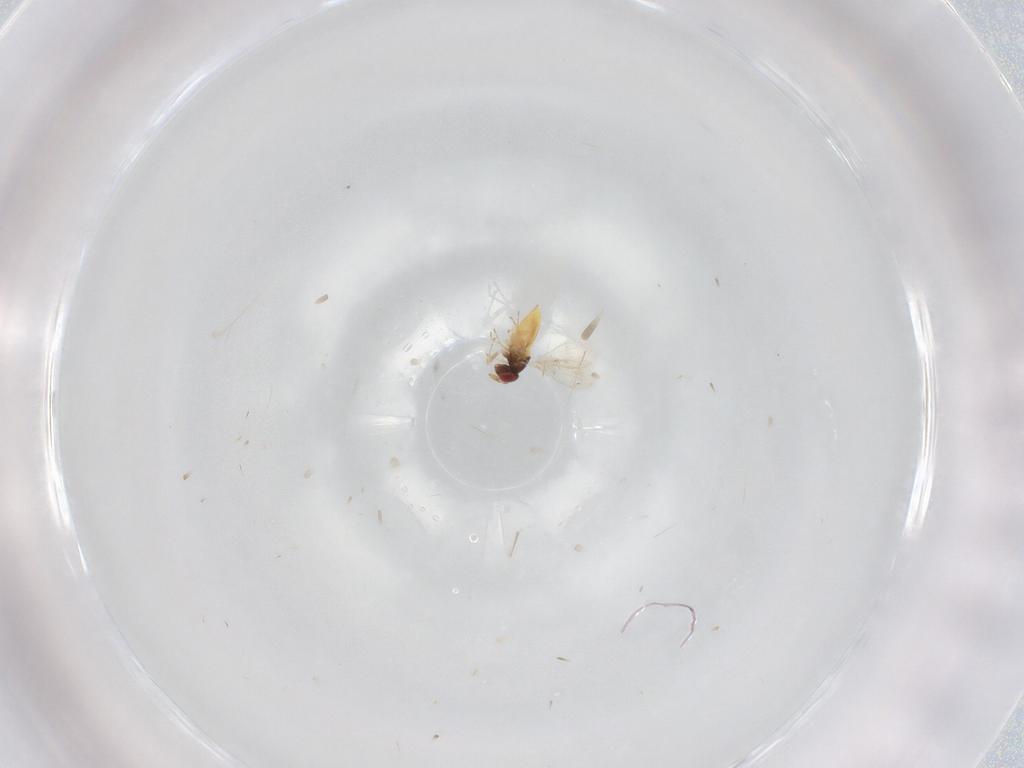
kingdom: Animalia
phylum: Arthropoda
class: Insecta
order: Hymenoptera
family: Trichogrammatidae
